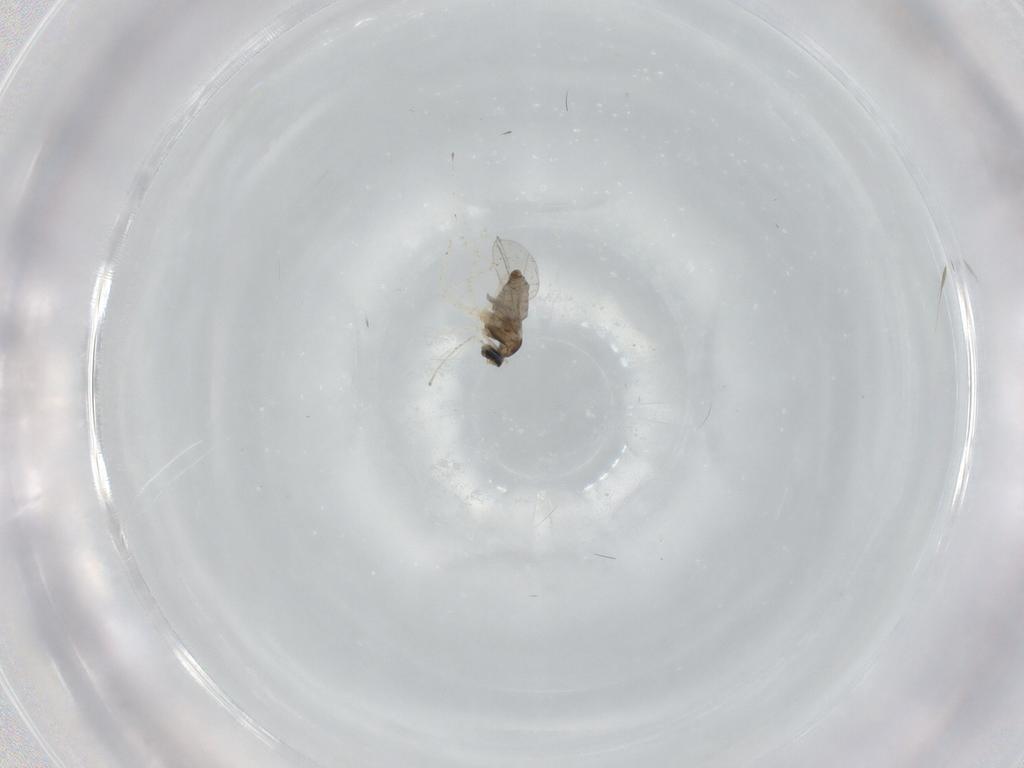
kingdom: Animalia
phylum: Arthropoda
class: Insecta
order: Diptera
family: Cecidomyiidae
